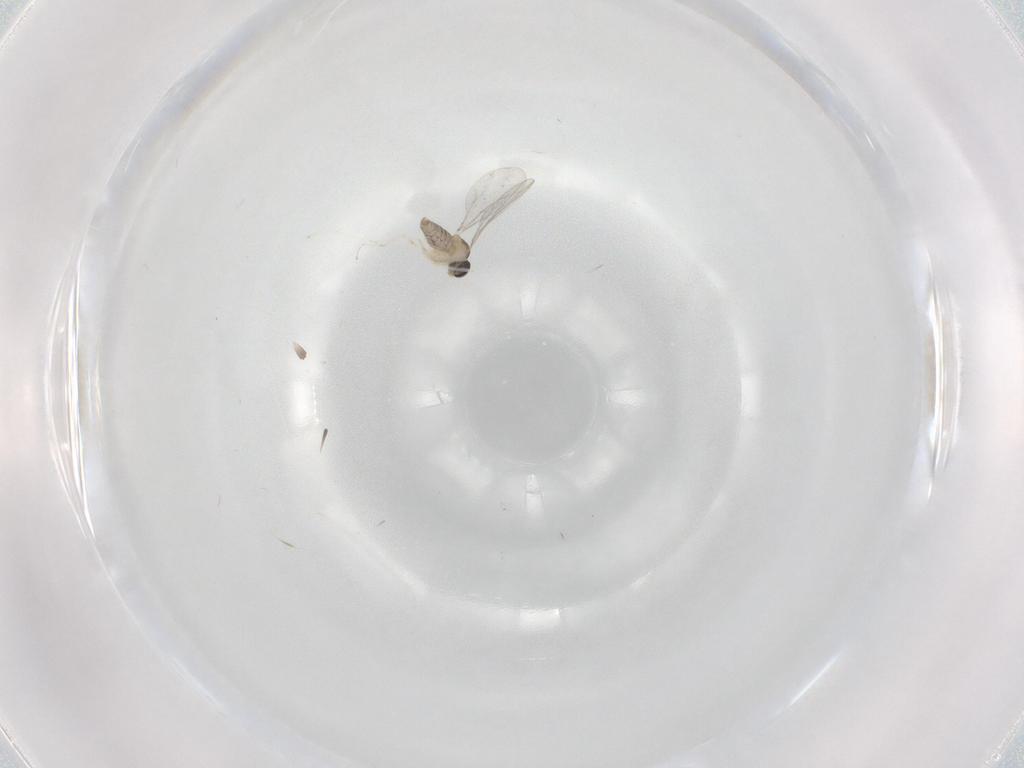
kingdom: Animalia
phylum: Arthropoda
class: Insecta
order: Diptera
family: Cecidomyiidae
